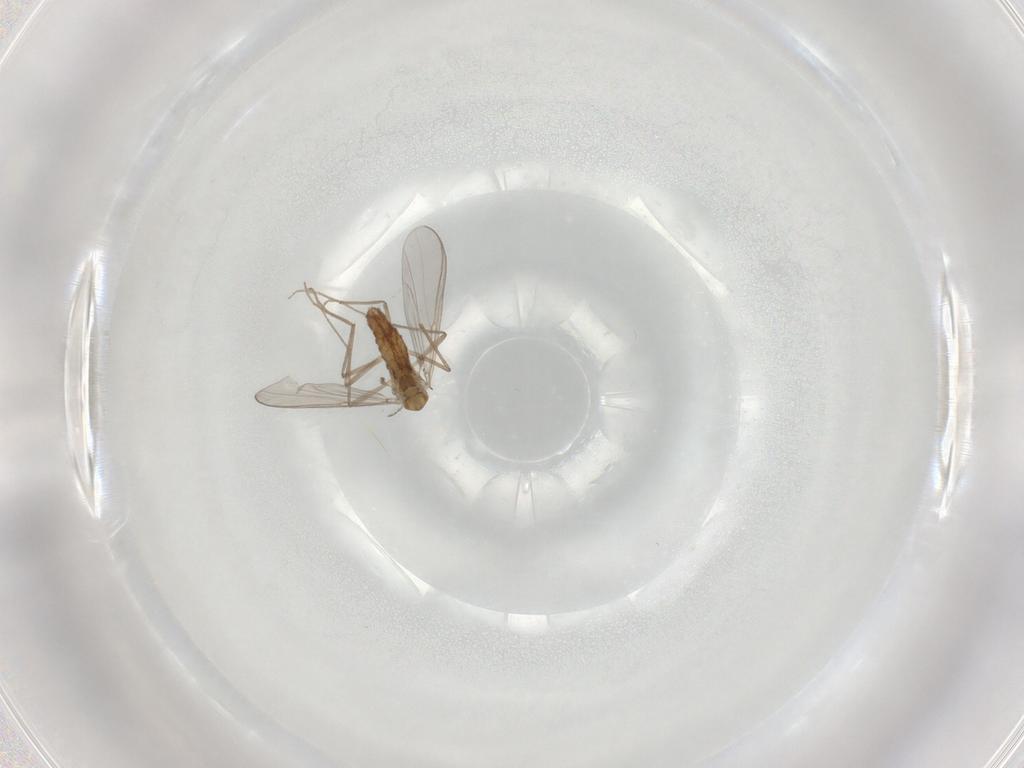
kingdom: Animalia
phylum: Arthropoda
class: Insecta
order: Diptera
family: Chironomidae
